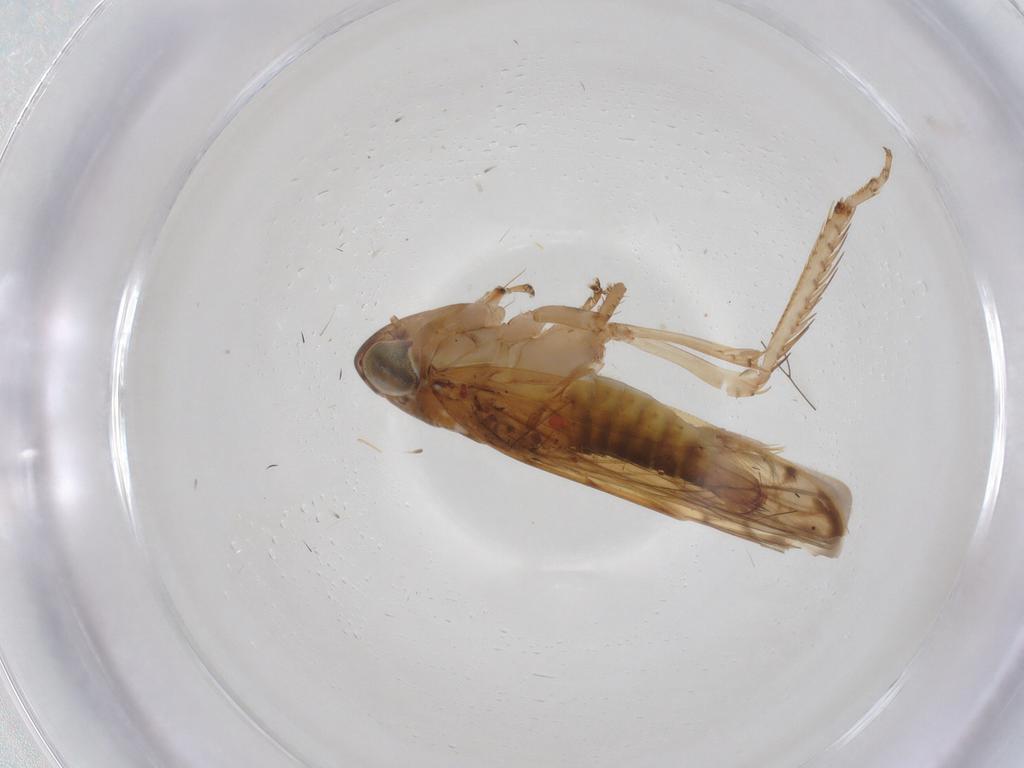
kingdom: Animalia
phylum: Arthropoda
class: Insecta
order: Hemiptera
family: Cicadellidae
